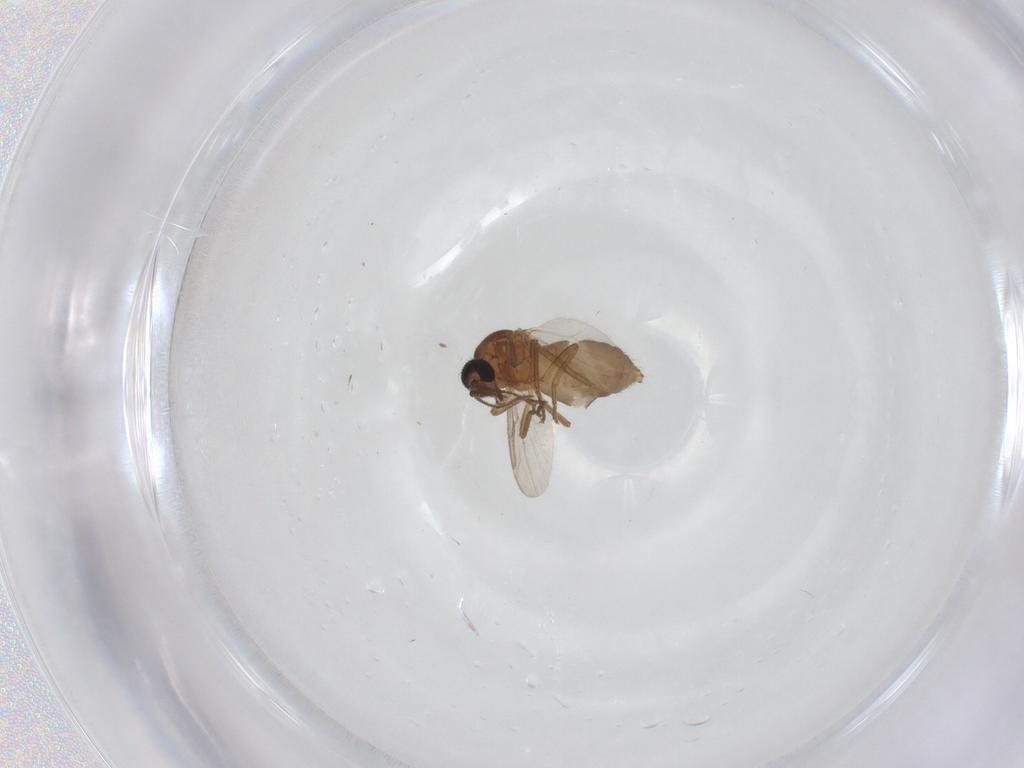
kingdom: Animalia
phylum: Arthropoda
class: Insecta
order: Diptera
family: Ceratopogonidae
